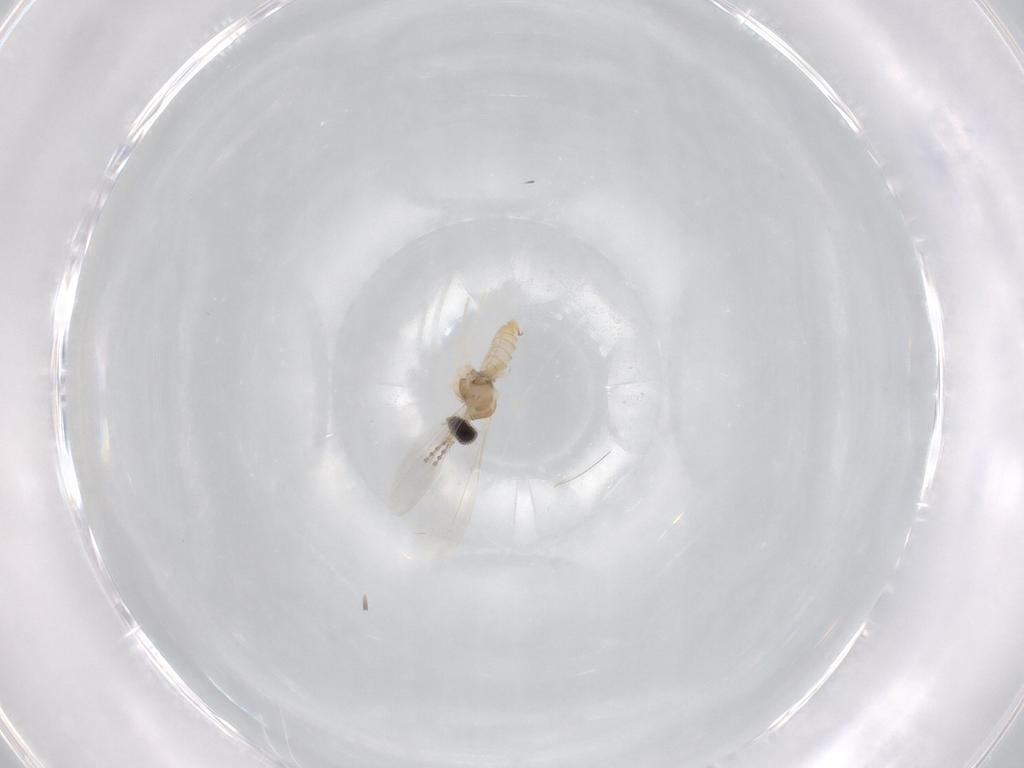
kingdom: Animalia
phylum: Arthropoda
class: Insecta
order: Diptera
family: Cecidomyiidae
